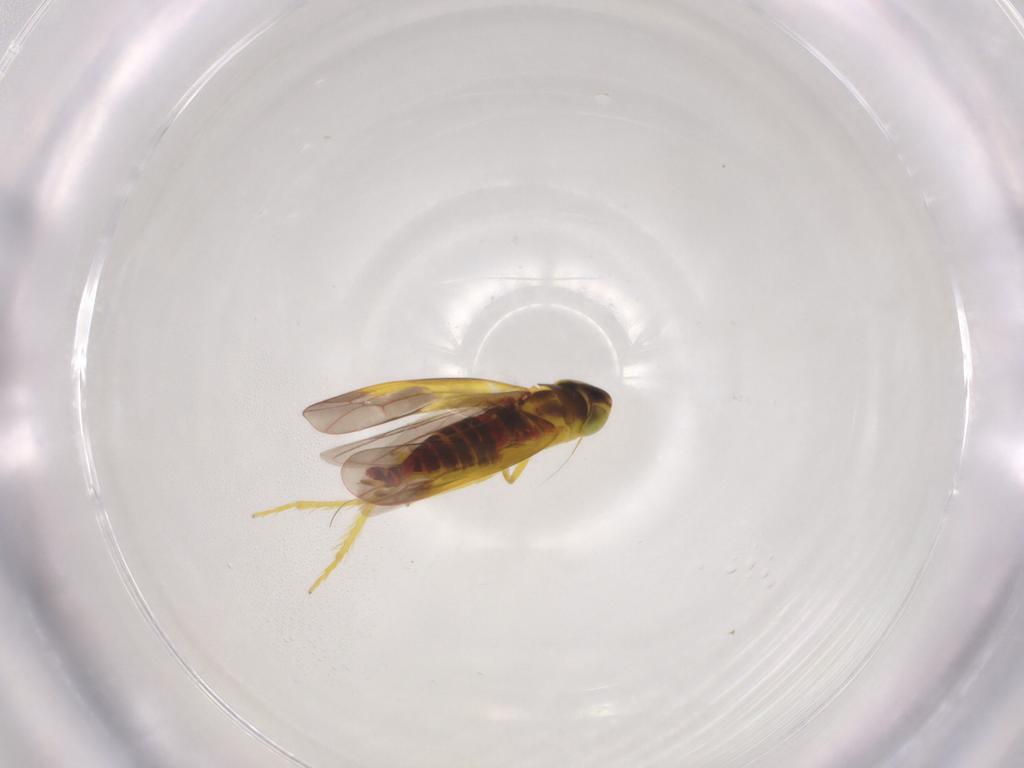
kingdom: Animalia
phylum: Arthropoda
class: Insecta
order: Hemiptera
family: Cicadellidae
